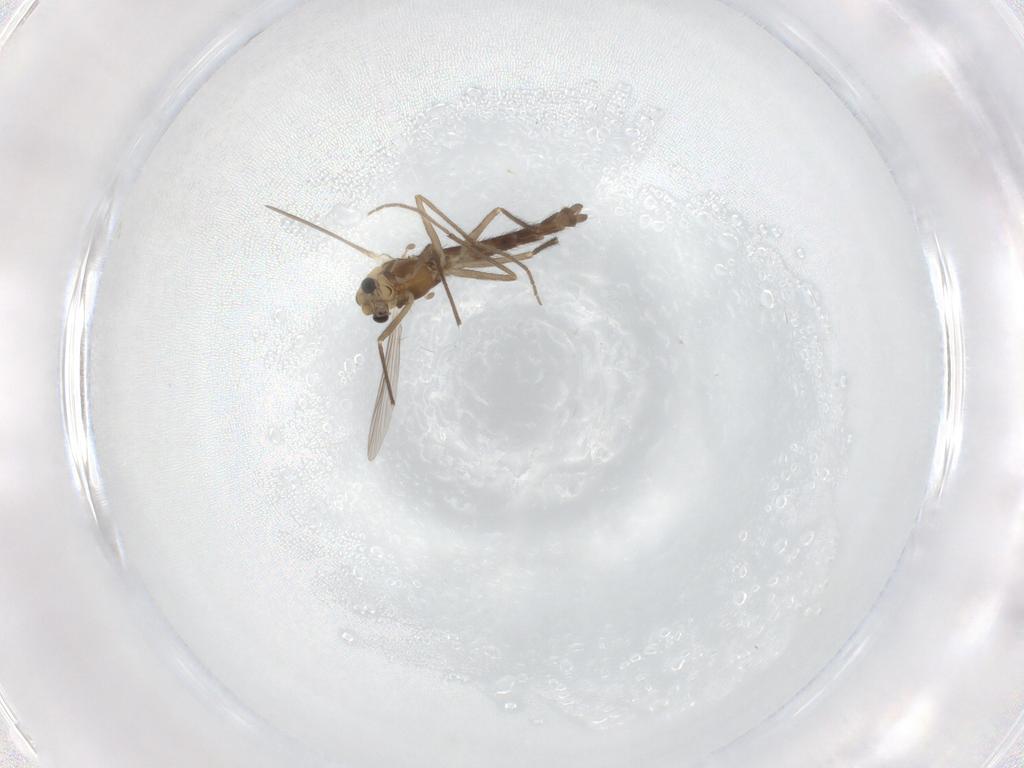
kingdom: Animalia
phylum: Arthropoda
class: Insecta
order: Diptera
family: Chironomidae
